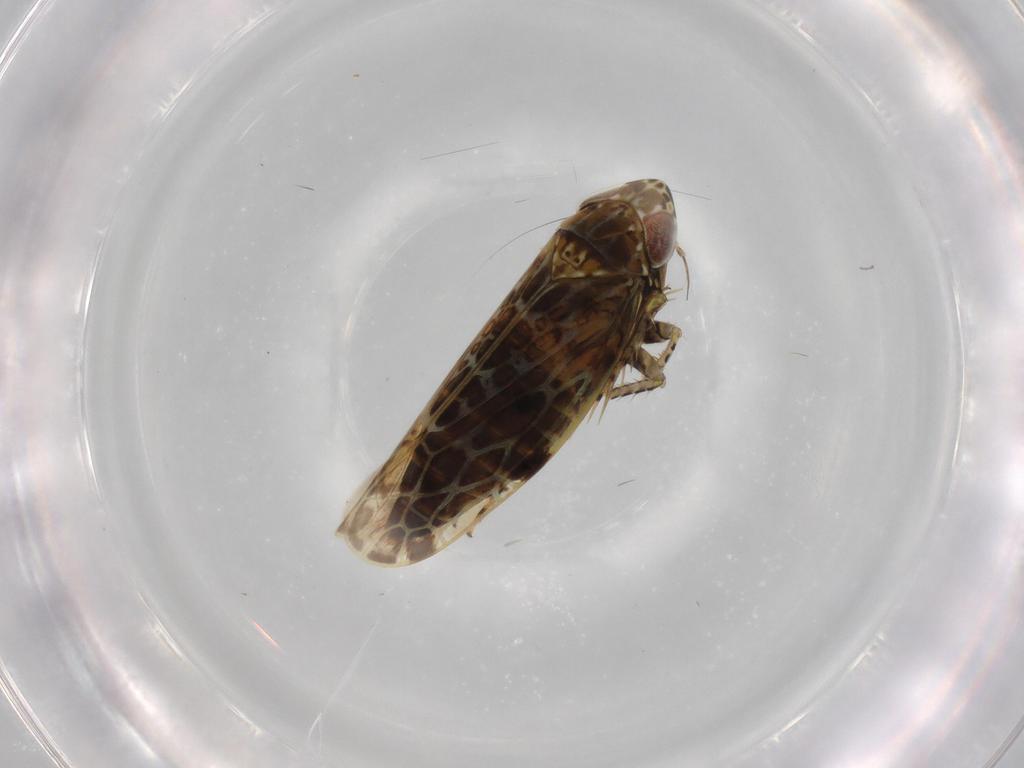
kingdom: Animalia
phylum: Arthropoda
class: Insecta
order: Hemiptera
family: Cicadellidae
